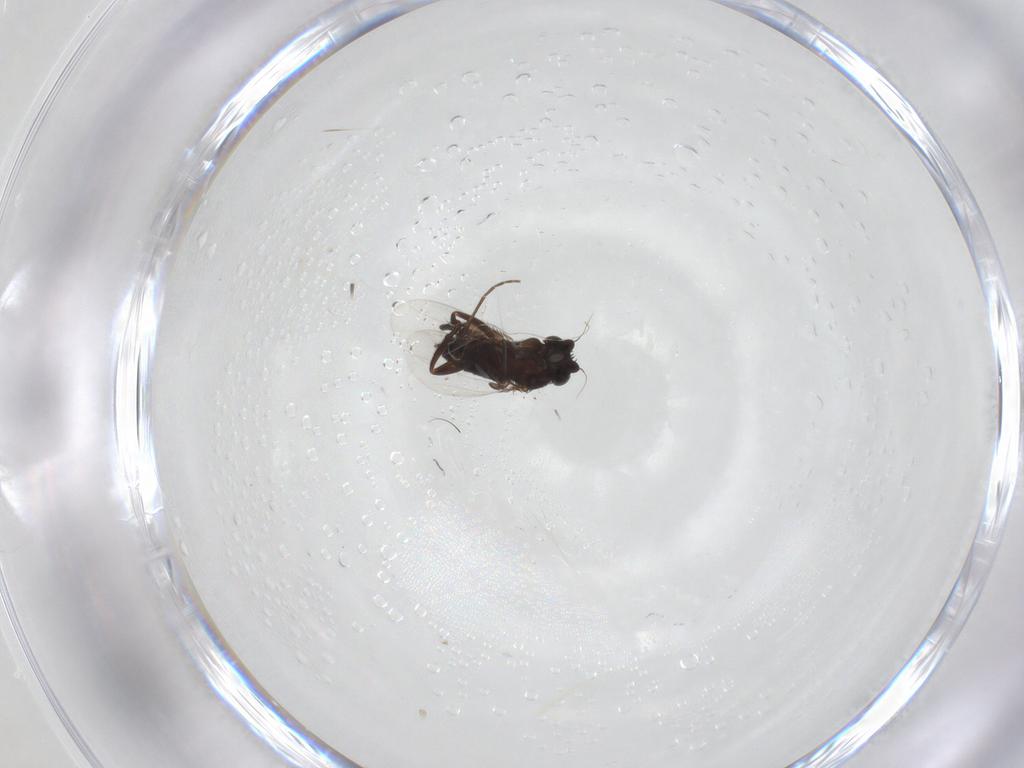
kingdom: Animalia
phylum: Arthropoda
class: Insecta
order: Diptera
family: Phoridae
